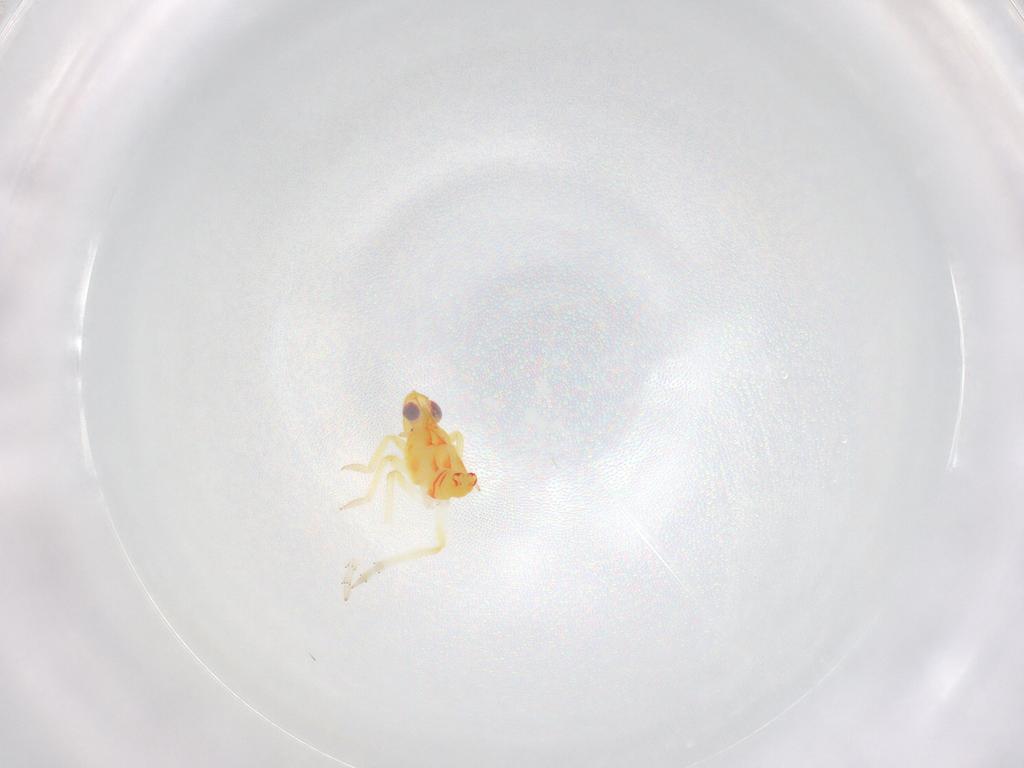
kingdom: Animalia
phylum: Arthropoda
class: Insecta
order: Hemiptera
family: Tropiduchidae
